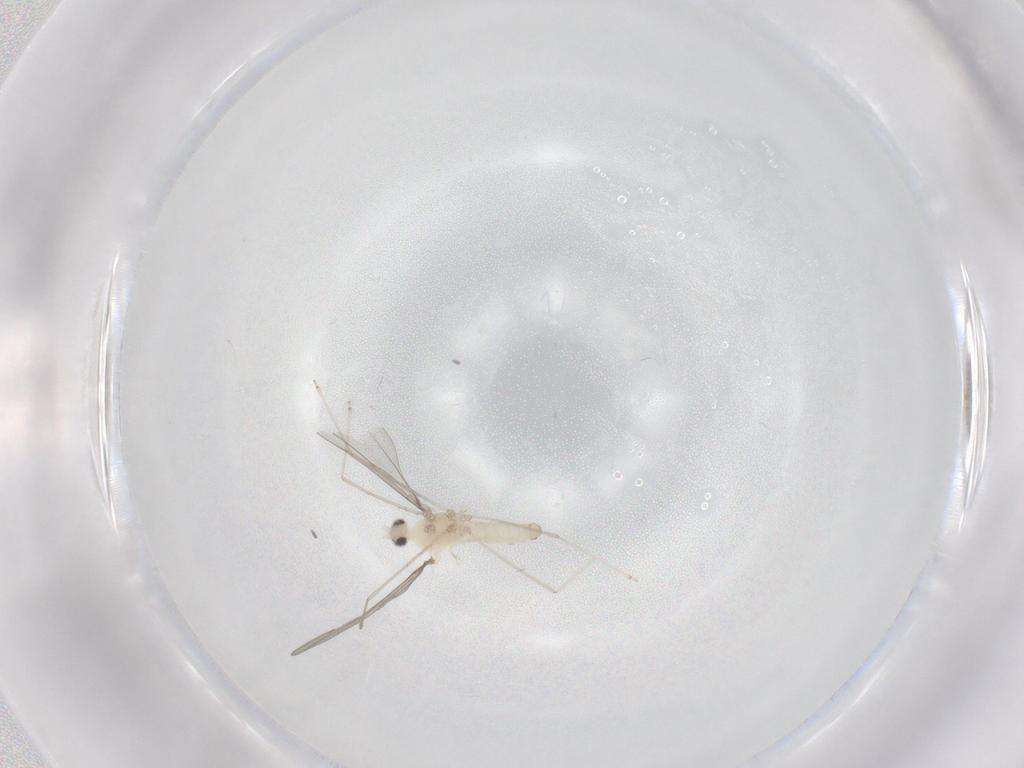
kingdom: Animalia
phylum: Arthropoda
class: Insecta
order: Diptera
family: Cecidomyiidae
